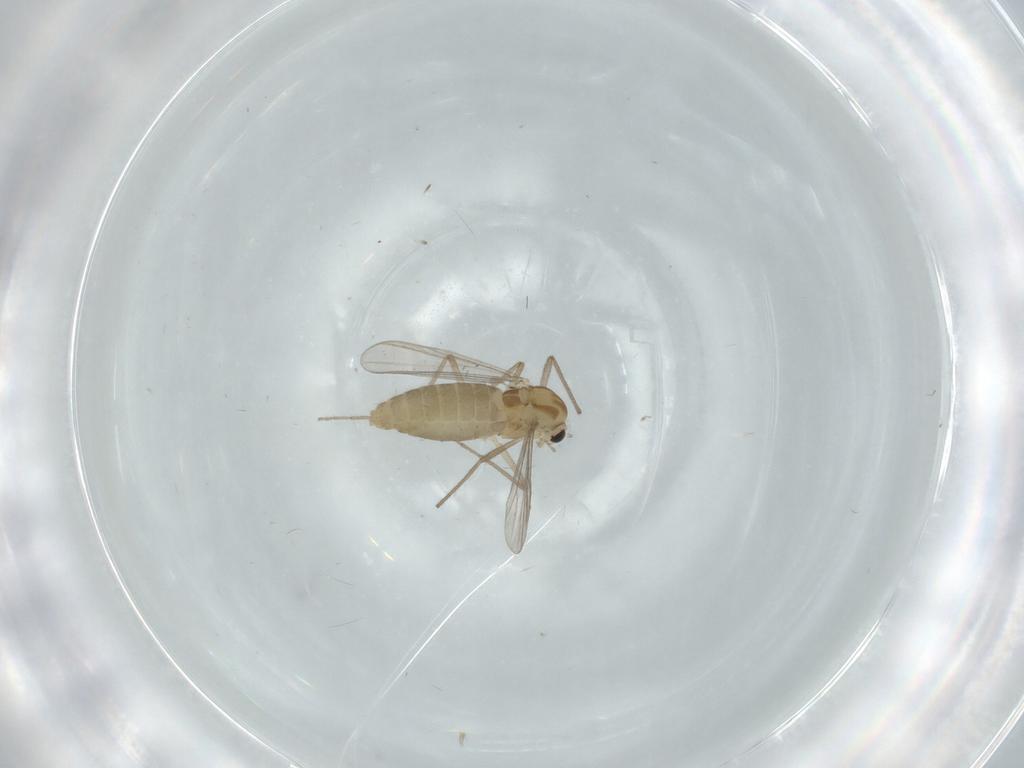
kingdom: Animalia
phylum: Arthropoda
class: Insecta
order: Diptera
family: Chironomidae
